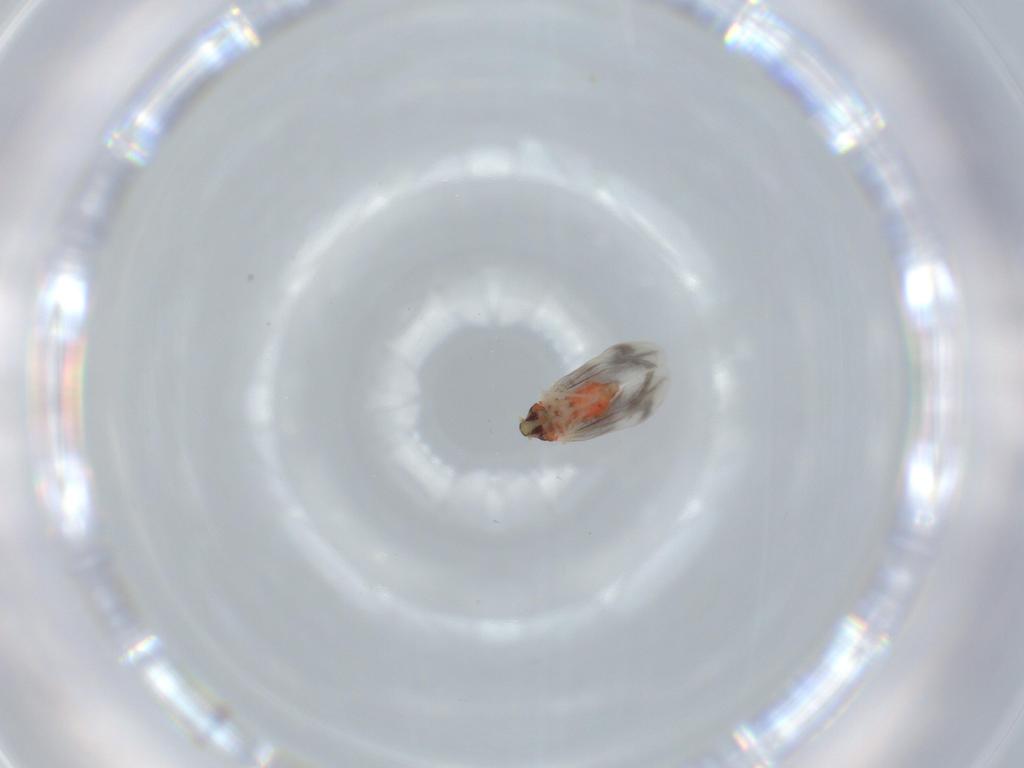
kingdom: Animalia
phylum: Arthropoda
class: Insecta
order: Hemiptera
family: Aleyrodidae
